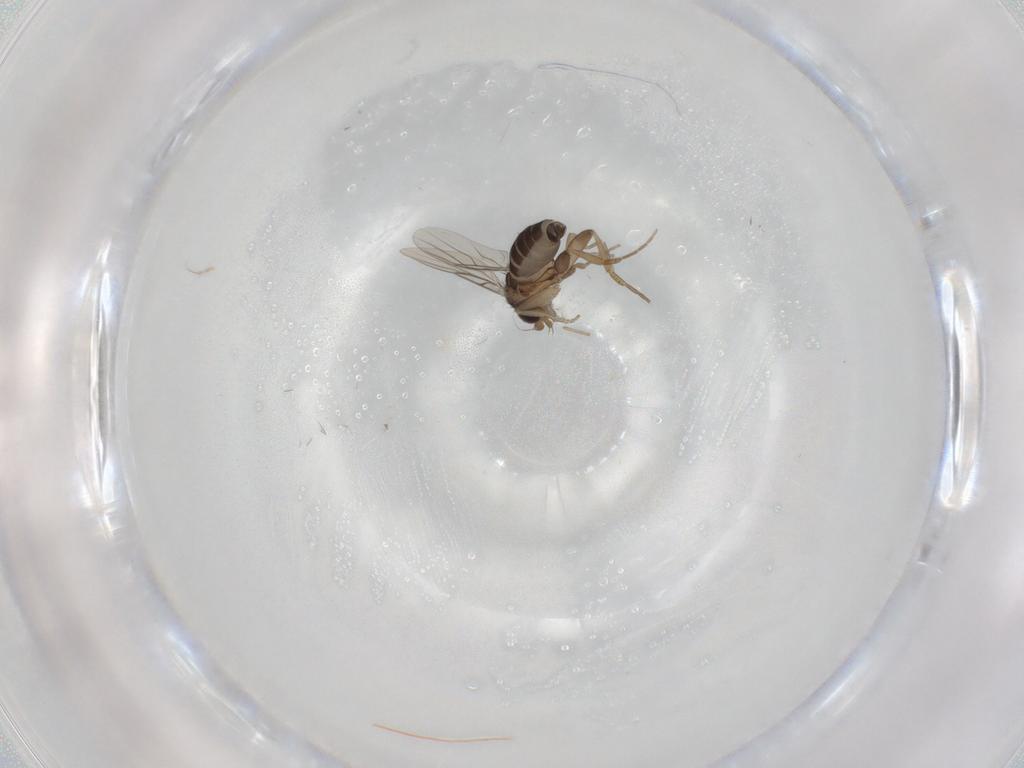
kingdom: Animalia
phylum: Arthropoda
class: Insecta
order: Diptera
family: Phoridae
